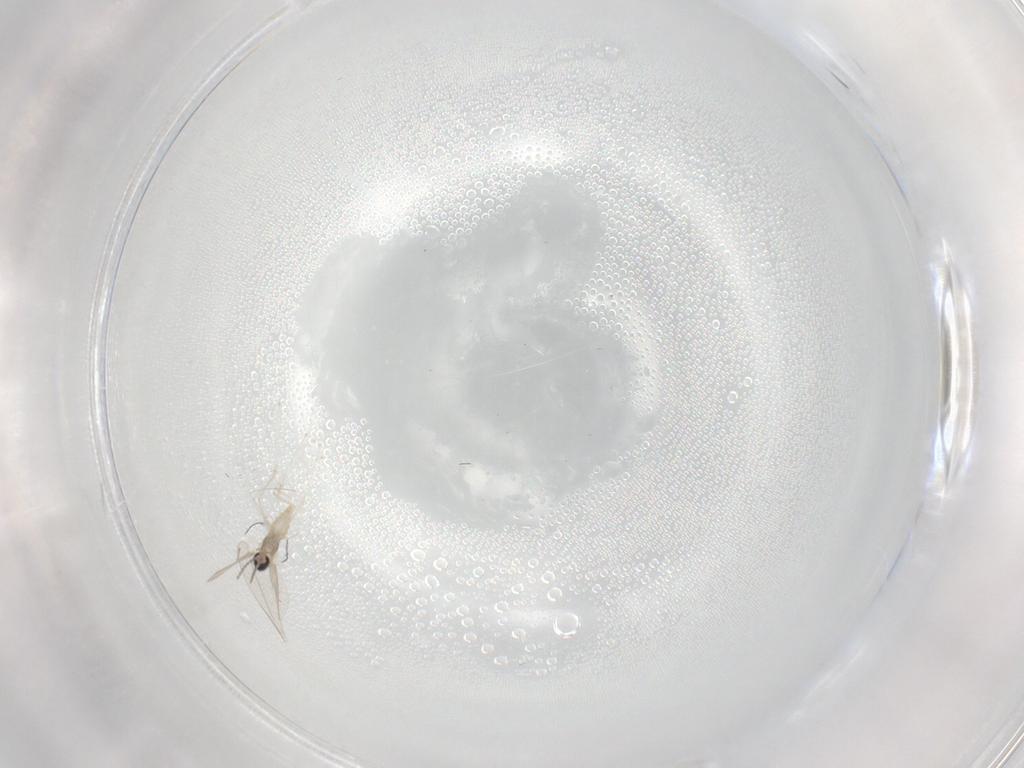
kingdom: Animalia
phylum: Arthropoda
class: Insecta
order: Diptera
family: Cecidomyiidae
